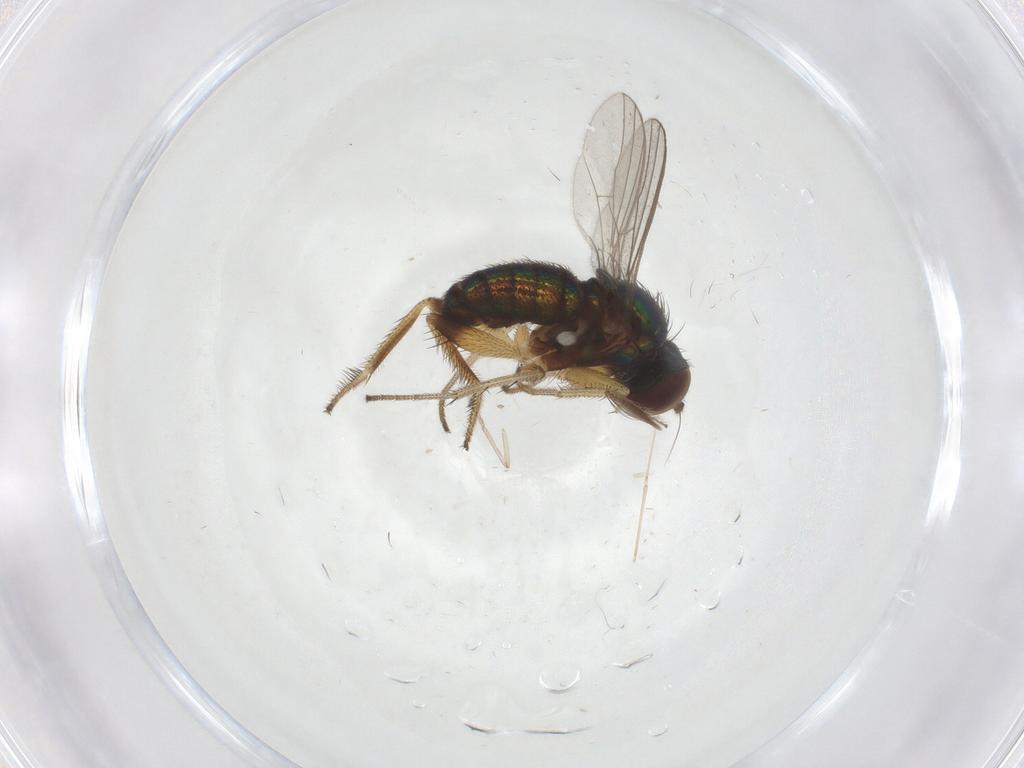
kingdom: Animalia
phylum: Arthropoda
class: Insecta
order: Diptera
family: Dolichopodidae
